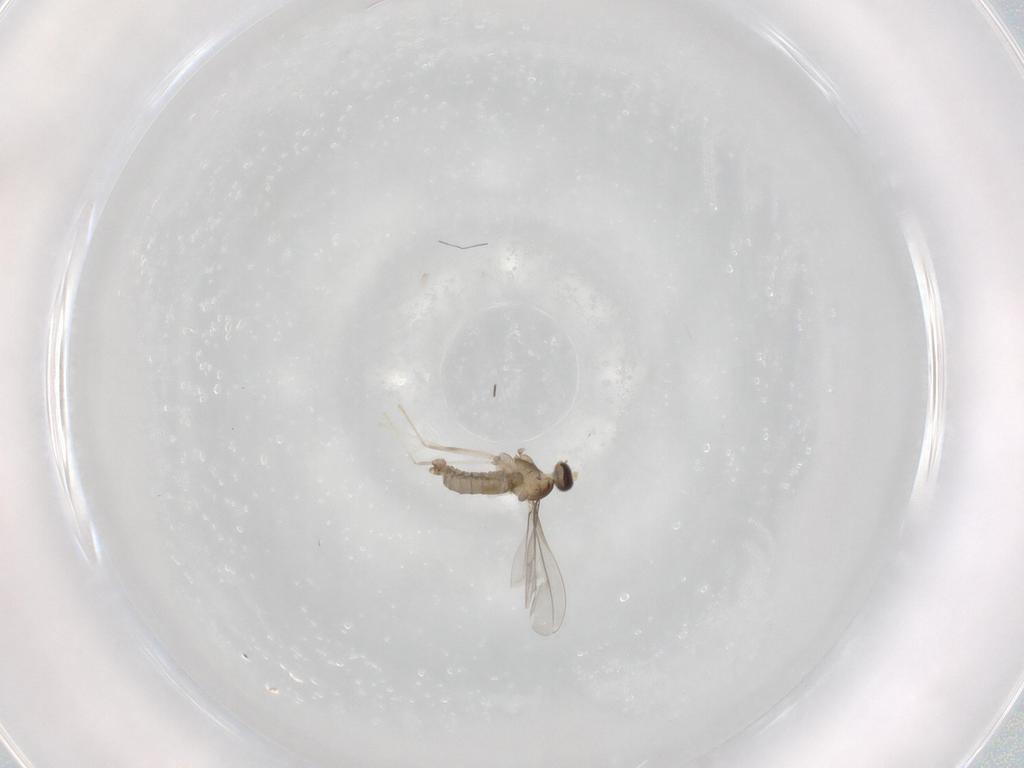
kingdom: Animalia
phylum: Arthropoda
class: Insecta
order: Diptera
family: Cecidomyiidae
